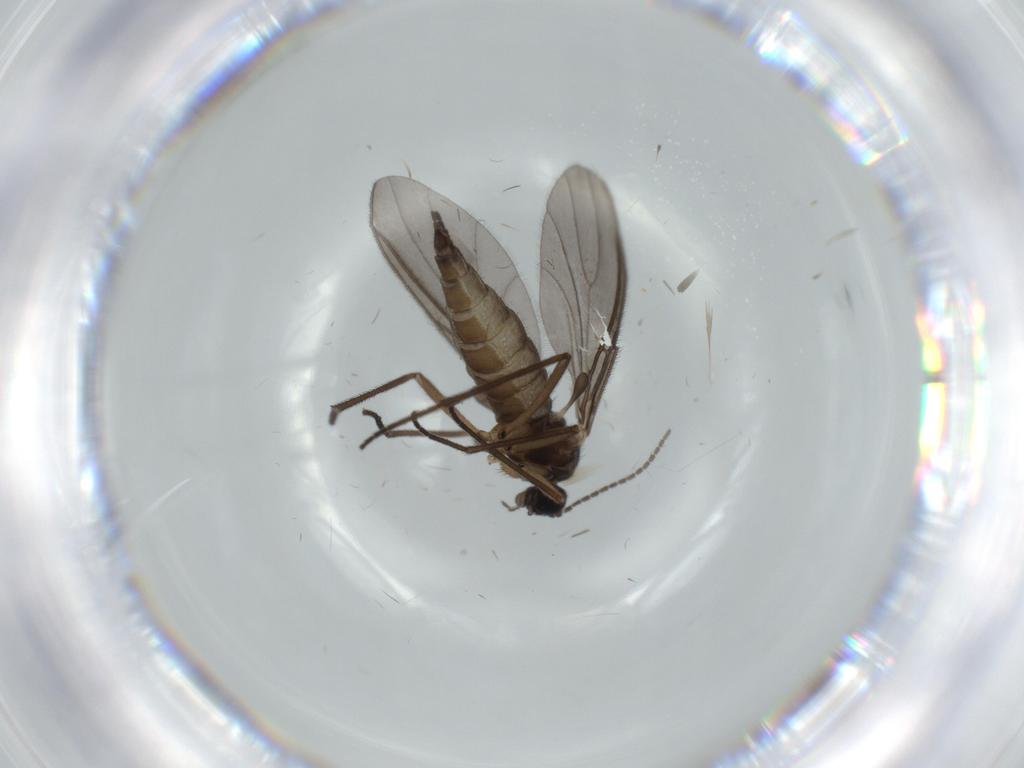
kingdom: Animalia
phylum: Arthropoda
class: Insecta
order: Diptera
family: Sciaridae
